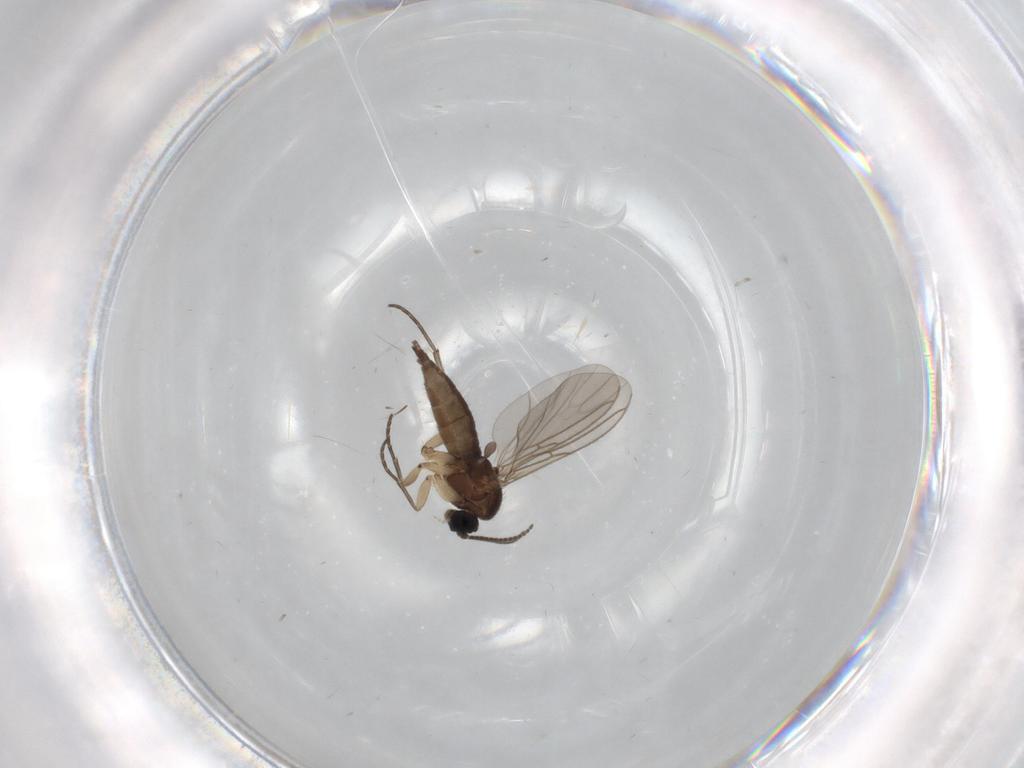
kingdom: Animalia
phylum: Arthropoda
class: Insecta
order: Diptera
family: Sciaridae
